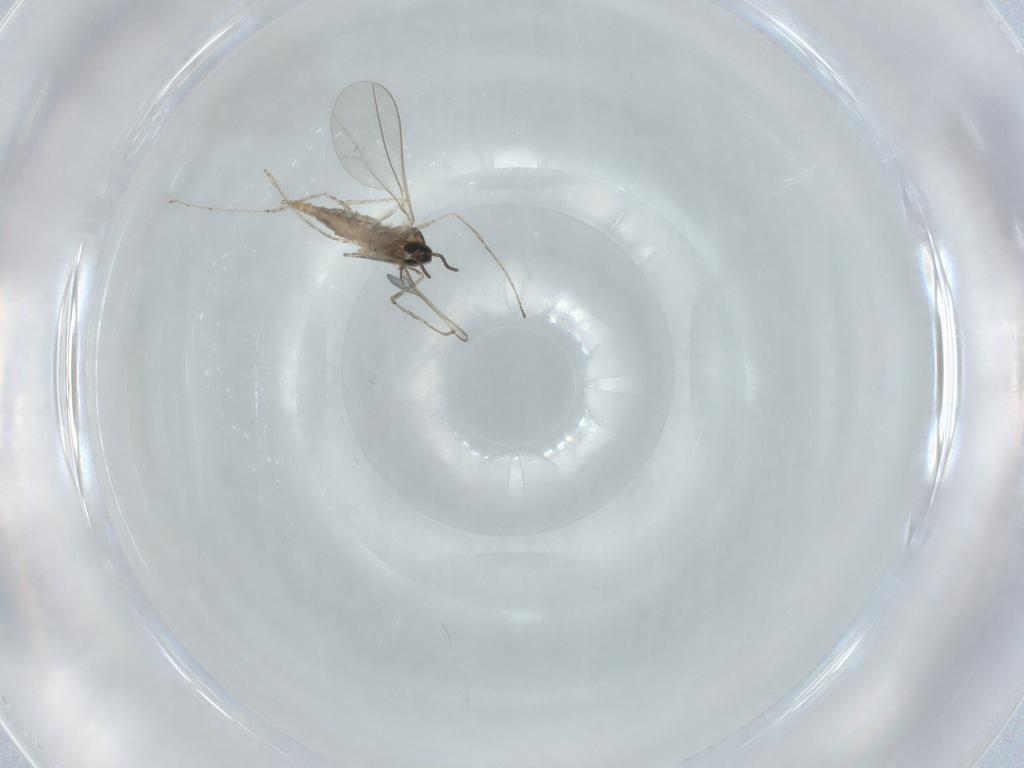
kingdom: Animalia
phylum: Arthropoda
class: Insecta
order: Diptera
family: Cecidomyiidae
